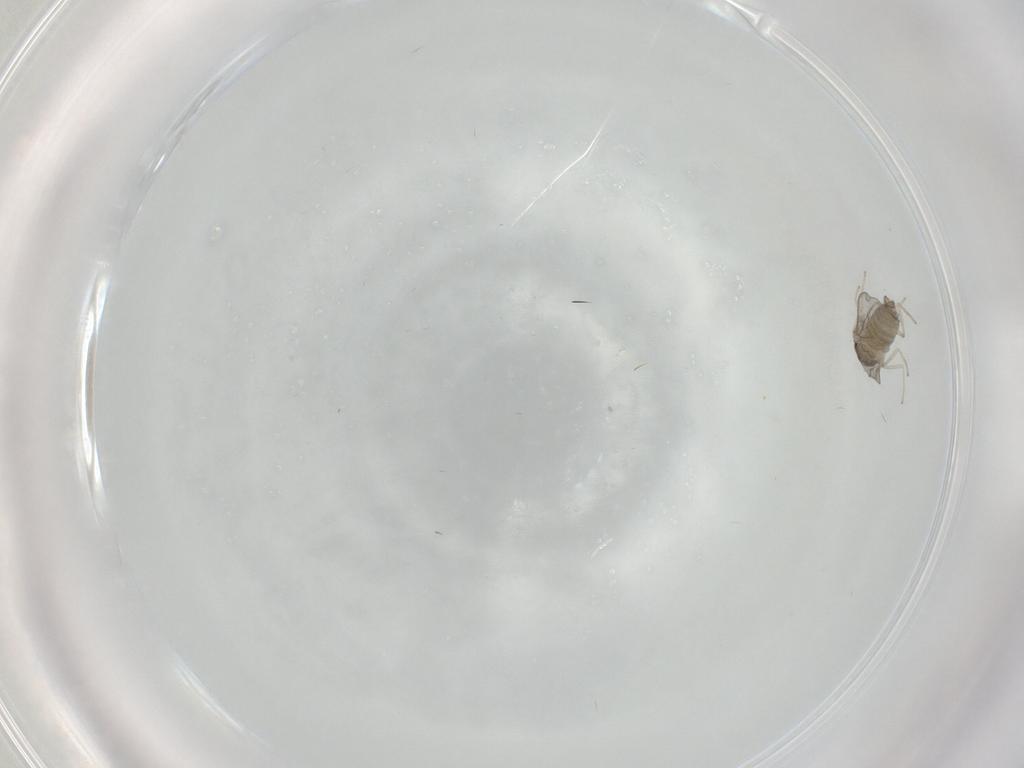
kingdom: Animalia
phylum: Arthropoda
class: Insecta
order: Diptera
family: Cecidomyiidae
